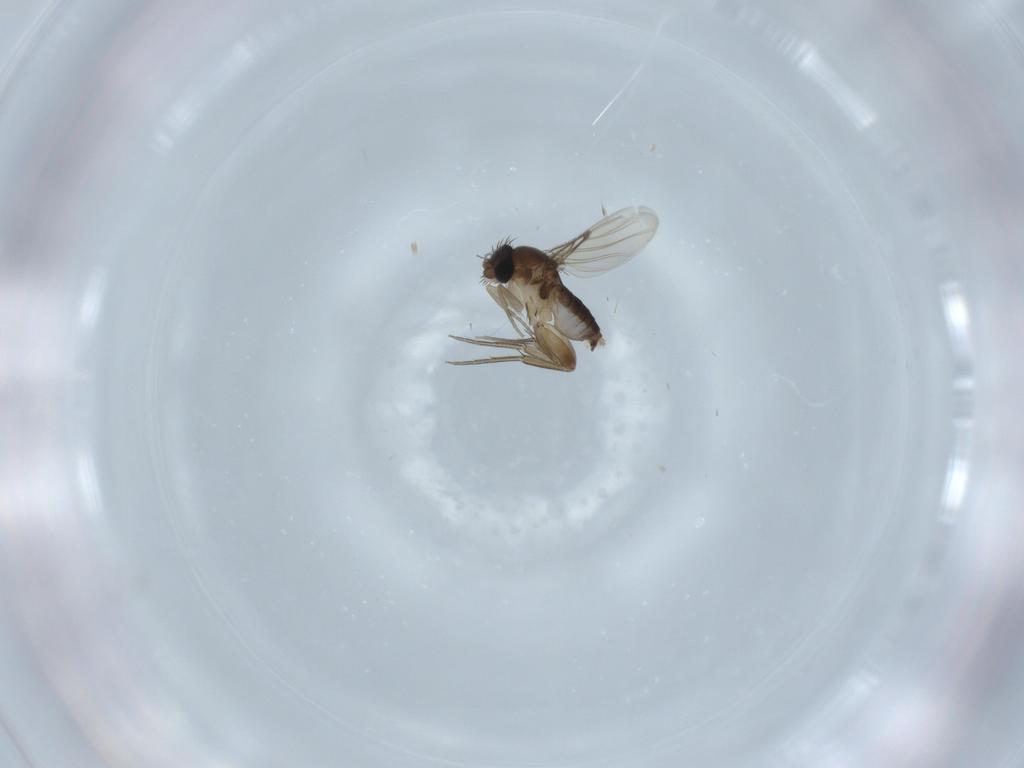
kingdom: Animalia
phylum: Arthropoda
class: Insecta
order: Diptera
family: Phoridae
